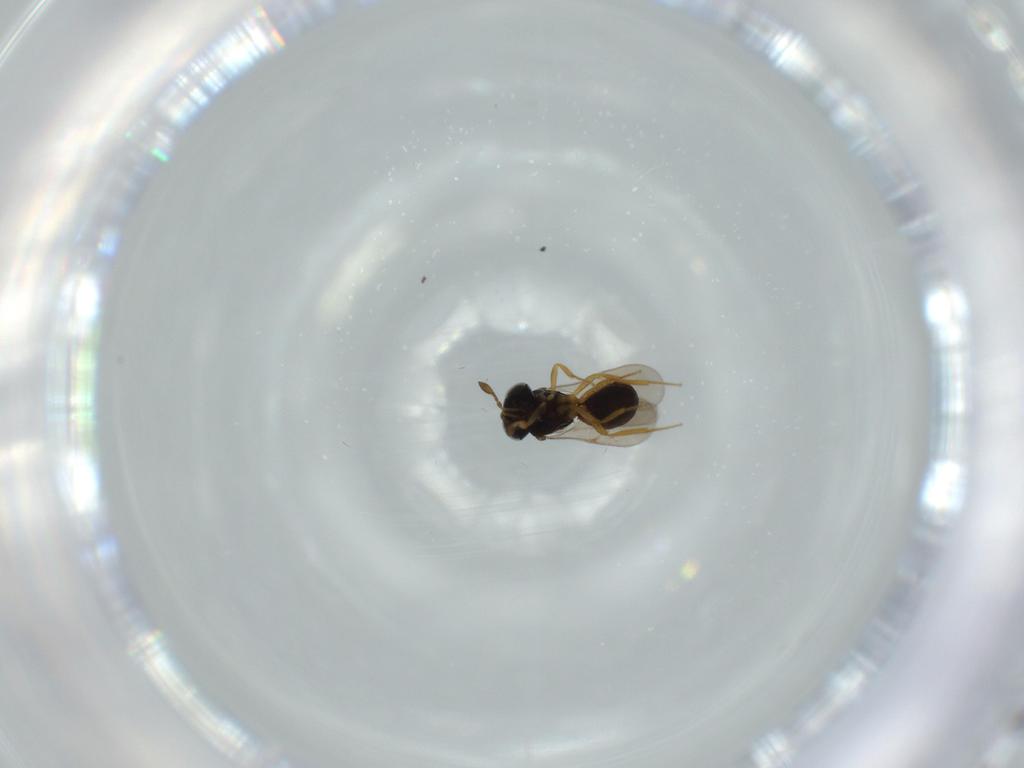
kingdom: Animalia
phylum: Arthropoda
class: Insecta
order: Hymenoptera
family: Scelionidae
